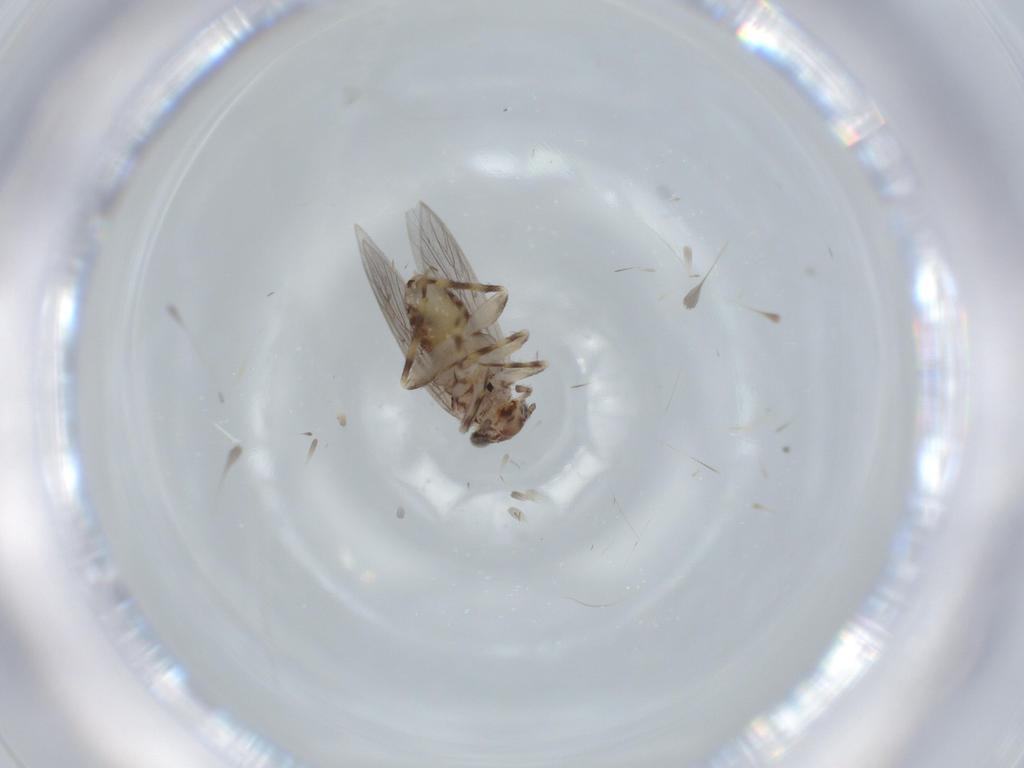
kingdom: Animalia
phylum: Arthropoda
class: Insecta
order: Psocodea
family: Lepidopsocidae
